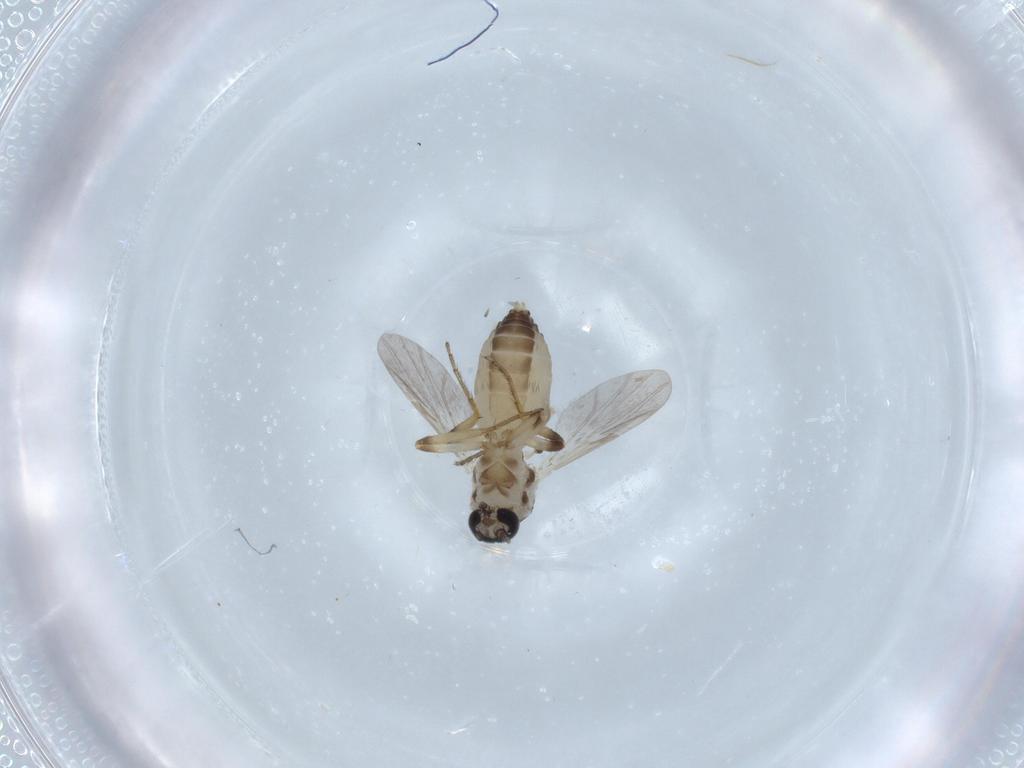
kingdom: Animalia
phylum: Arthropoda
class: Insecta
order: Diptera
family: Ceratopogonidae
